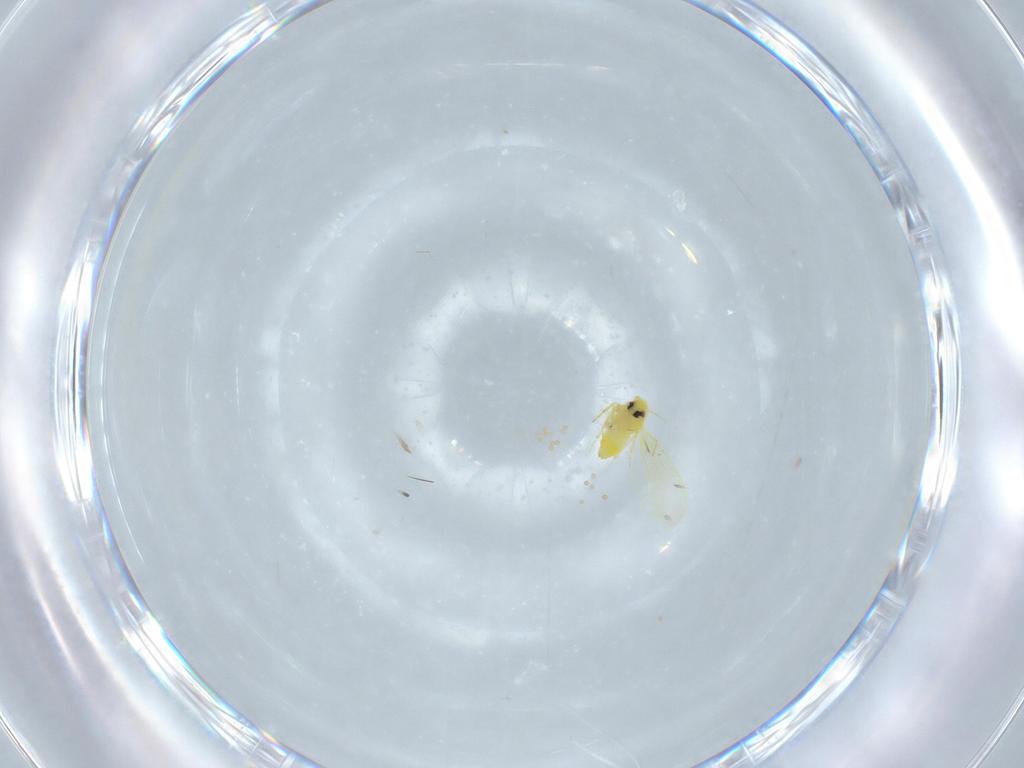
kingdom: Animalia
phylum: Arthropoda
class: Insecta
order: Hemiptera
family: Aleyrodidae
